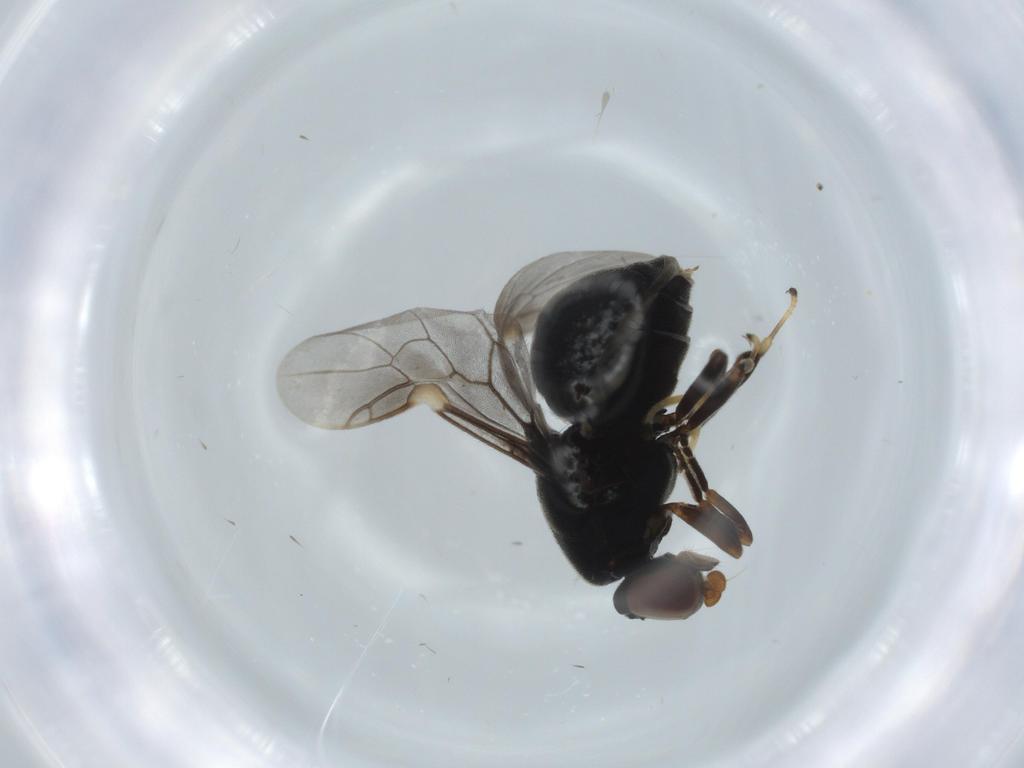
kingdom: Animalia
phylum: Arthropoda
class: Insecta
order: Diptera
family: Stratiomyidae
